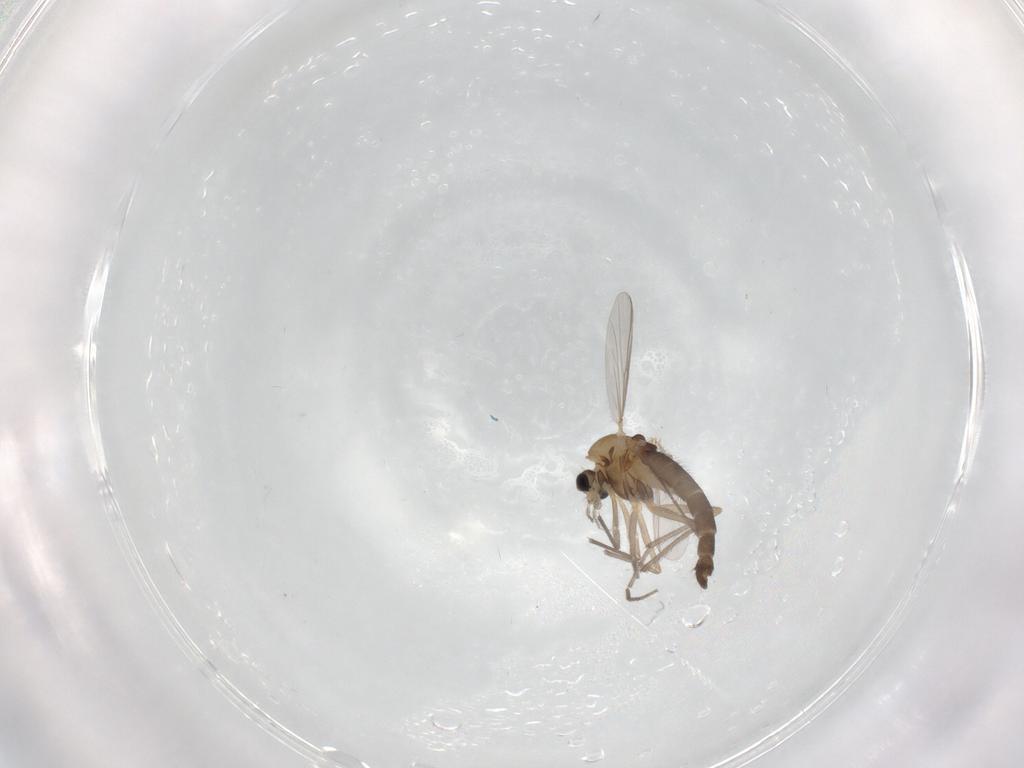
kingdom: Animalia
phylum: Arthropoda
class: Insecta
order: Diptera
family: Chironomidae
